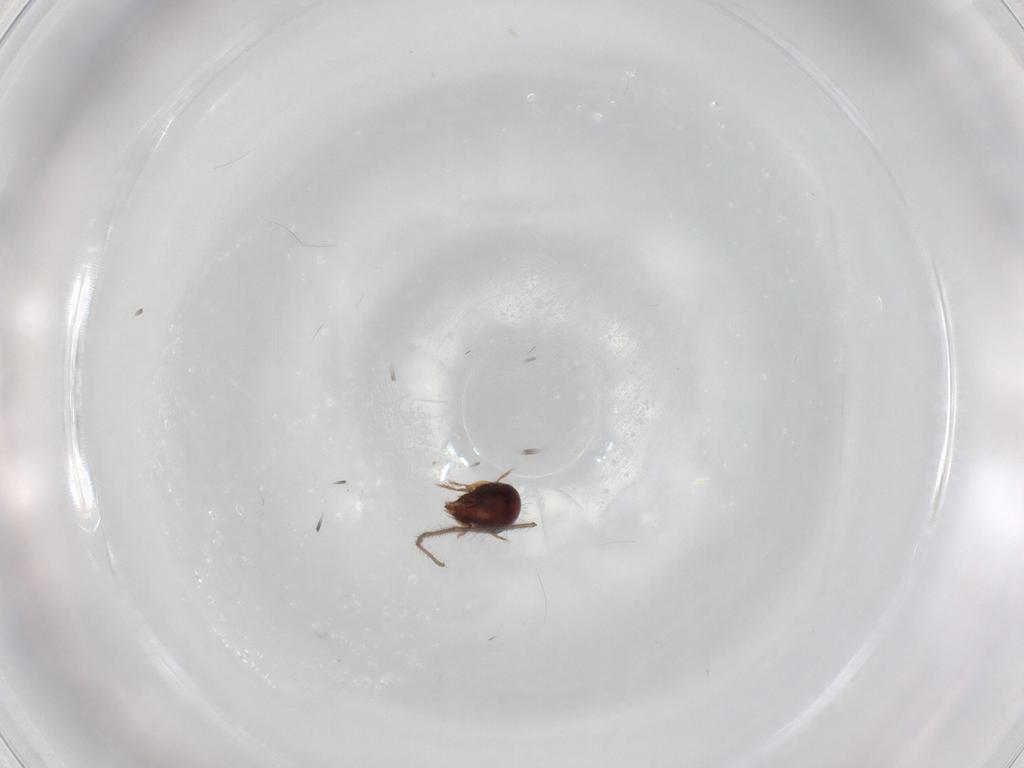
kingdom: Animalia
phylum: Arthropoda
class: Arachnida
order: Sarcoptiformes
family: Humerobatidae
